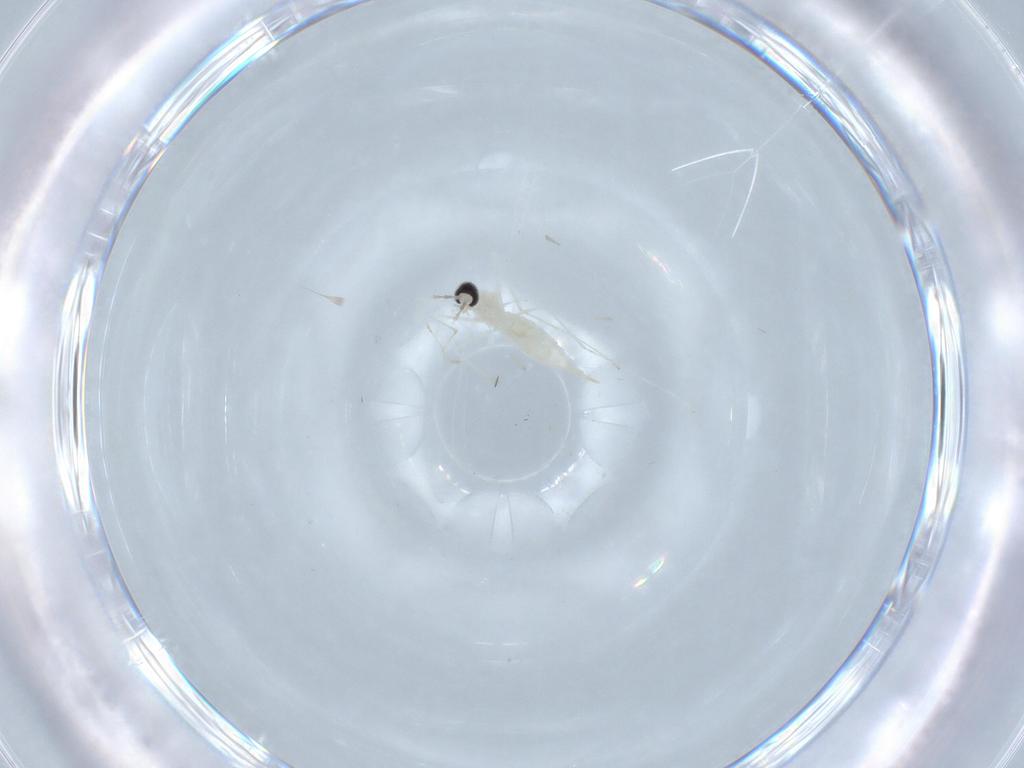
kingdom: Animalia
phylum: Arthropoda
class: Insecta
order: Diptera
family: Cecidomyiidae
